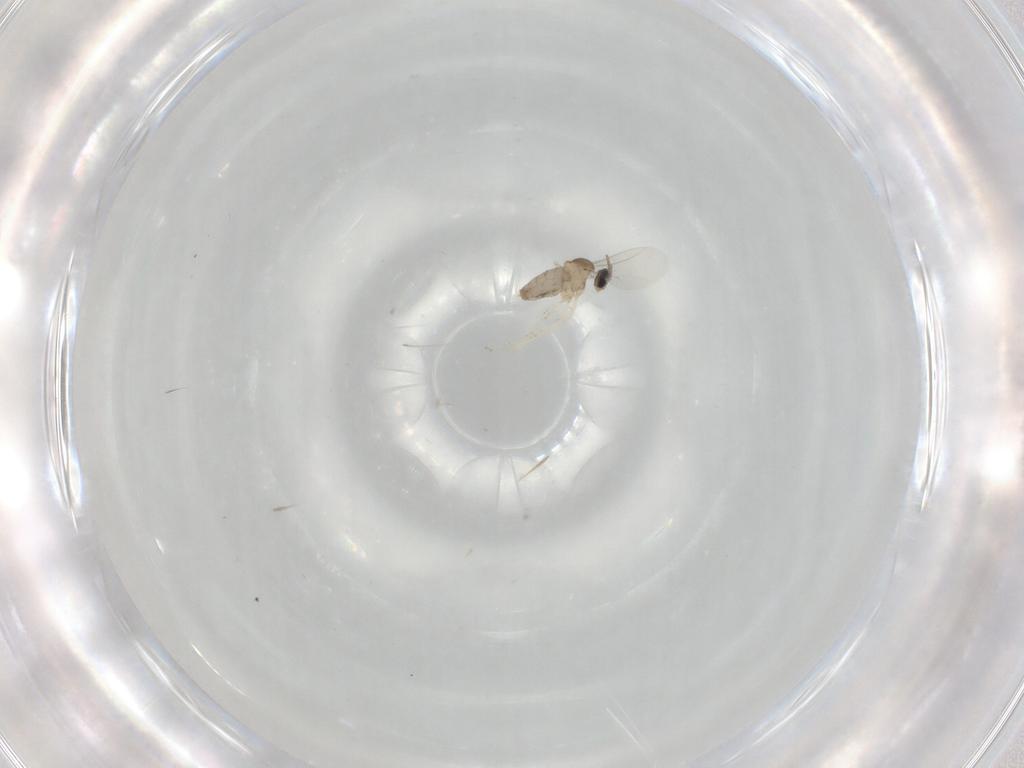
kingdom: Animalia
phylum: Arthropoda
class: Insecta
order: Diptera
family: Cecidomyiidae
